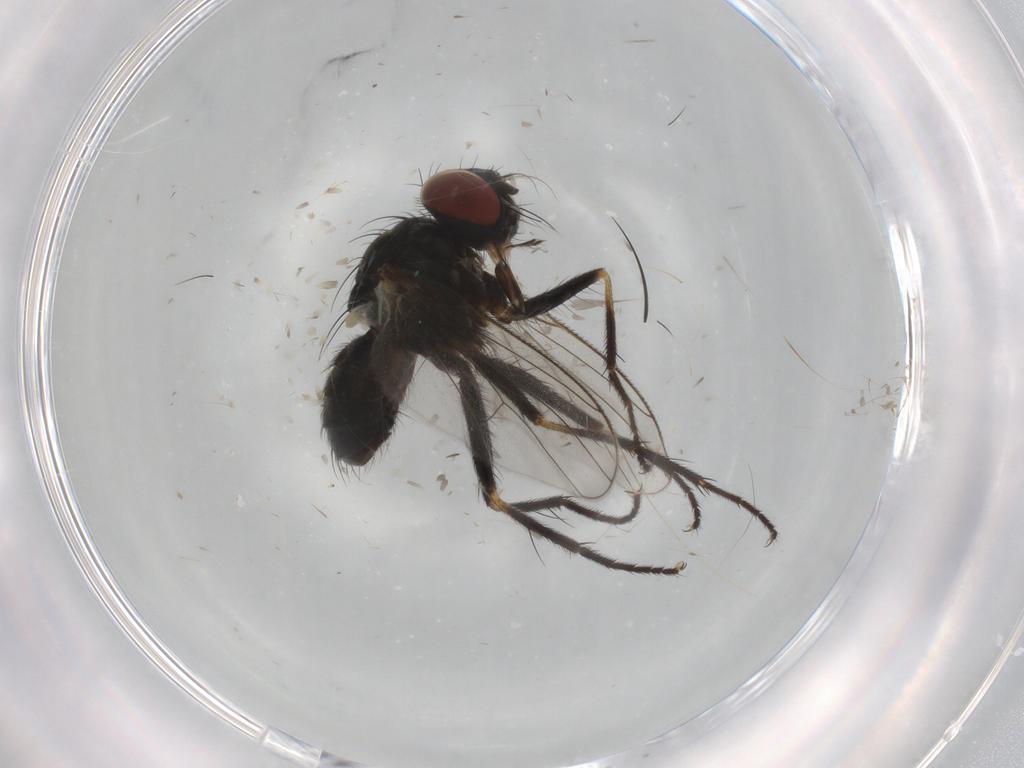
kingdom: Animalia
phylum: Arthropoda
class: Insecta
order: Diptera
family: Muscidae
